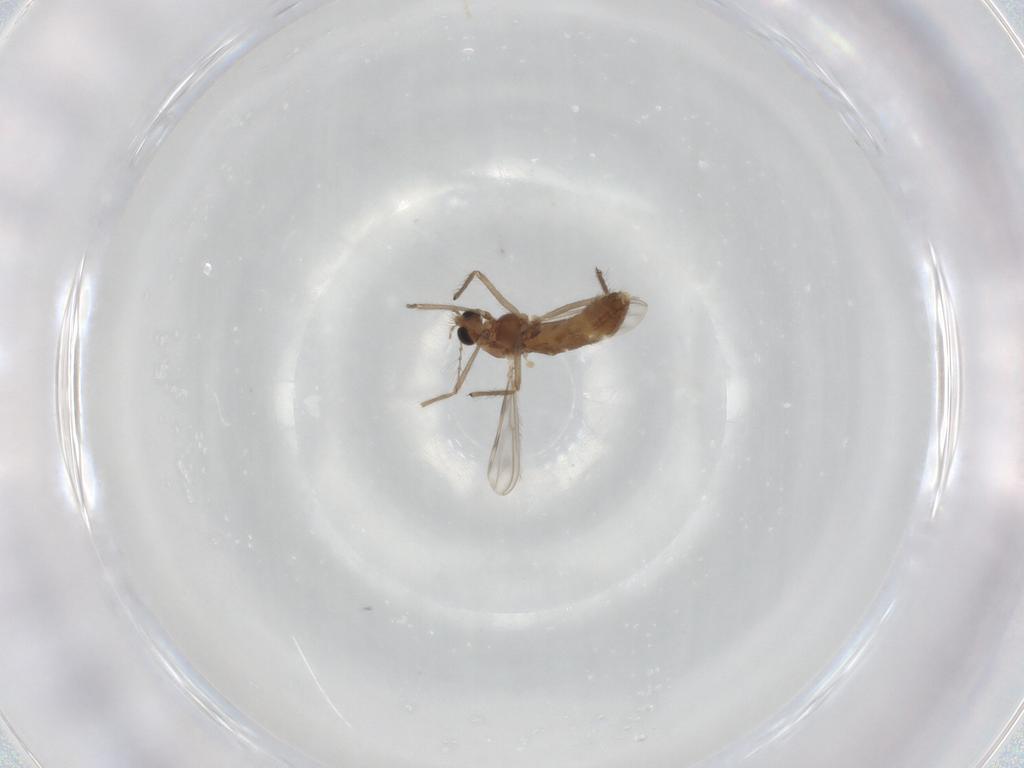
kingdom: Animalia
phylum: Arthropoda
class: Insecta
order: Diptera
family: Chironomidae
